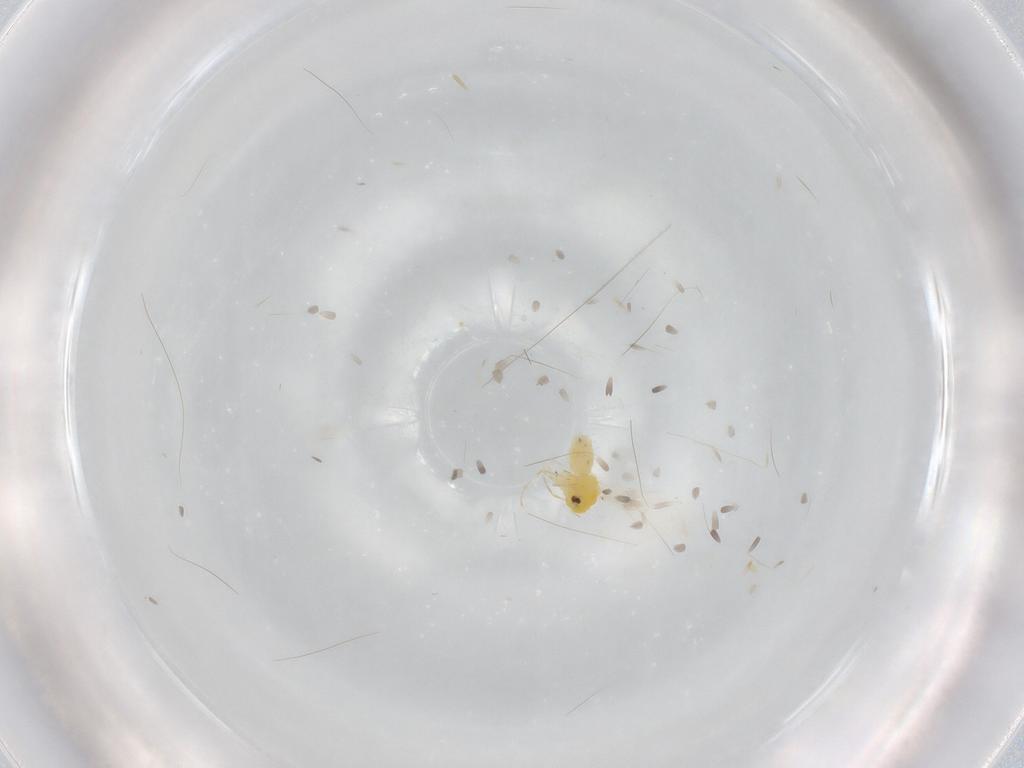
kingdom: Animalia
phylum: Arthropoda
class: Insecta
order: Hemiptera
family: Aleyrodidae
